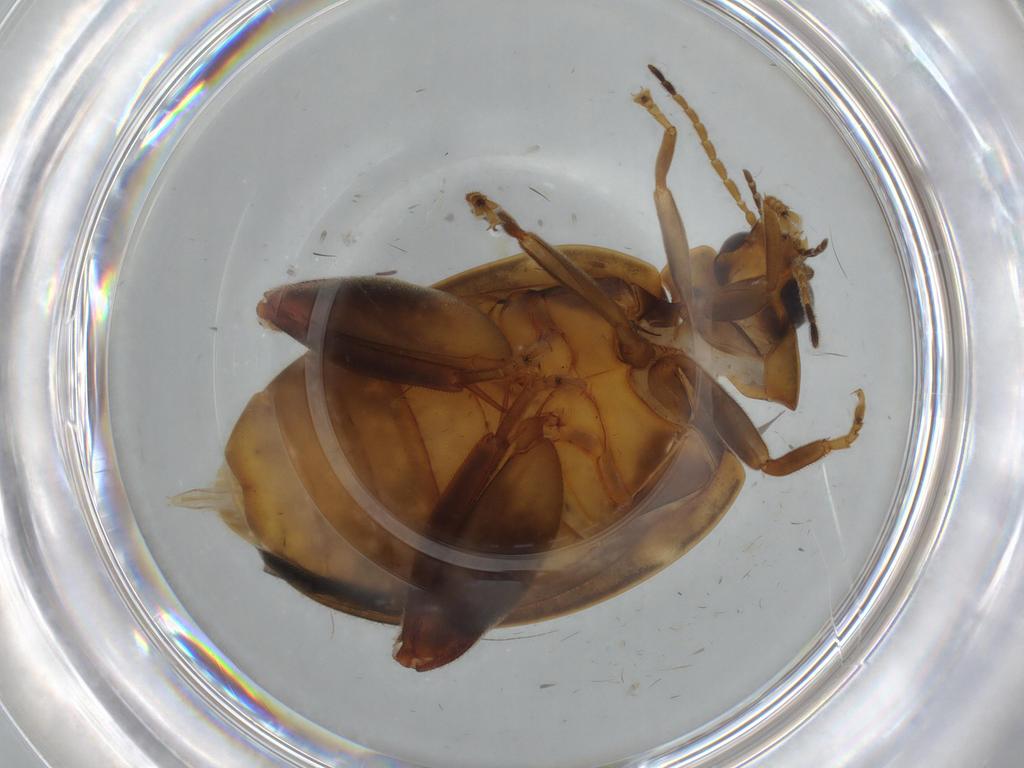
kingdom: Animalia
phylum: Arthropoda
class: Insecta
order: Coleoptera
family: Scirtidae
